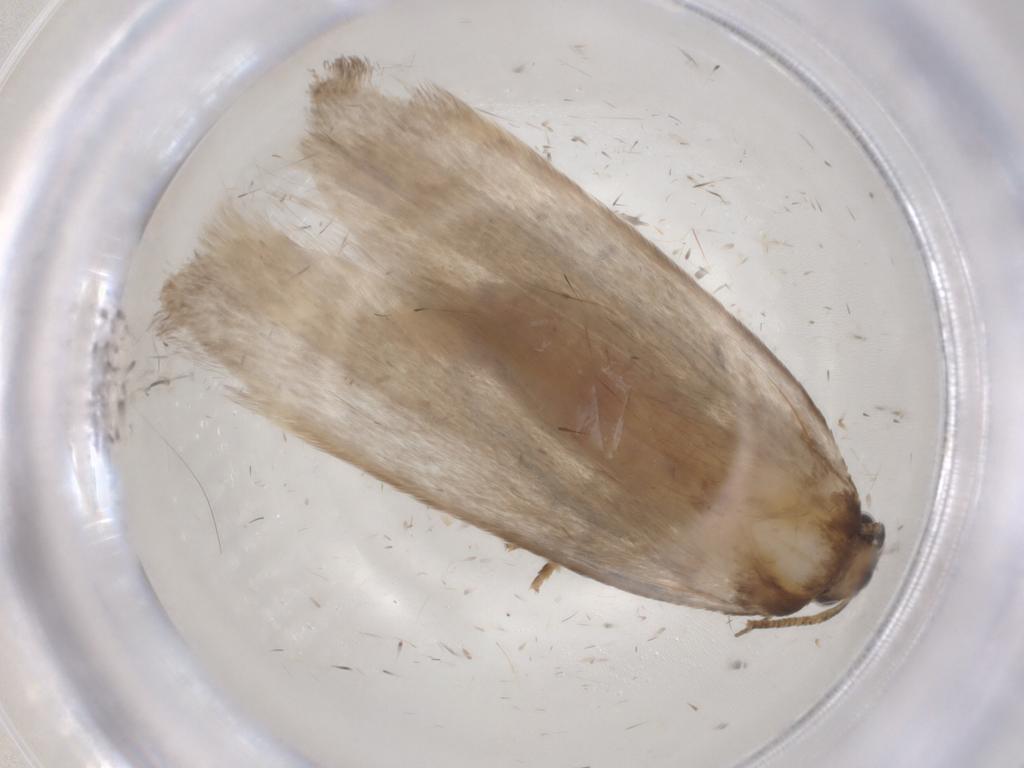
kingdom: Animalia
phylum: Arthropoda
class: Insecta
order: Lepidoptera
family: Gelechiidae
